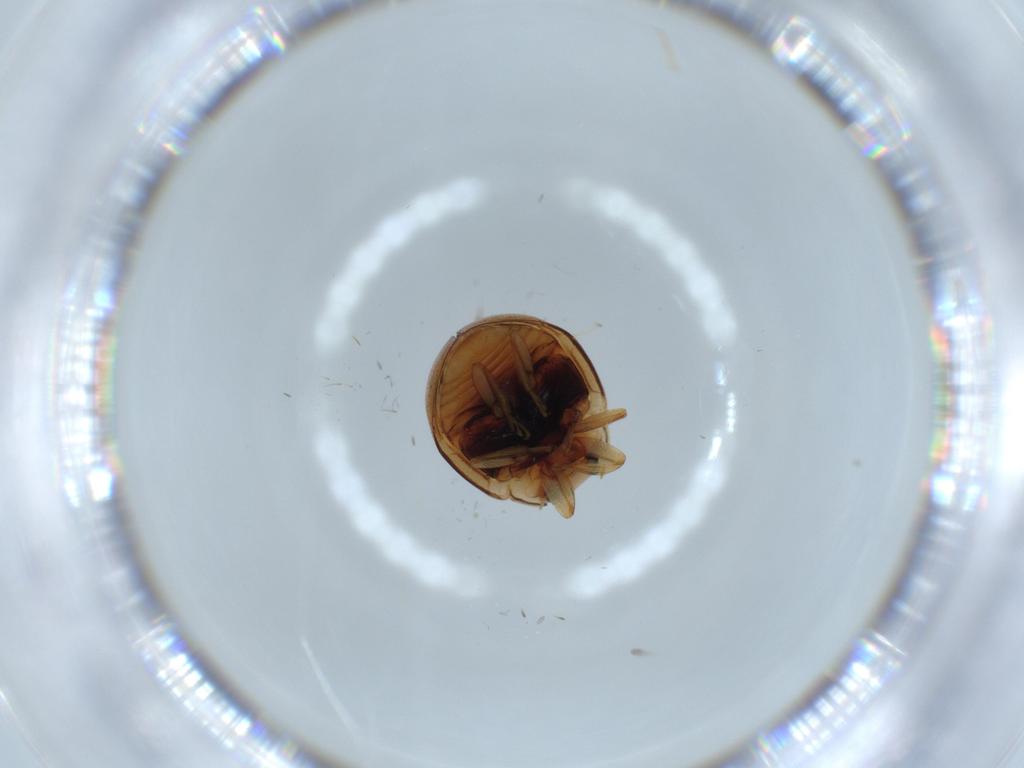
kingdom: Animalia
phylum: Arthropoda
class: Insecta
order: Coleoptera
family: Coccinellidae
